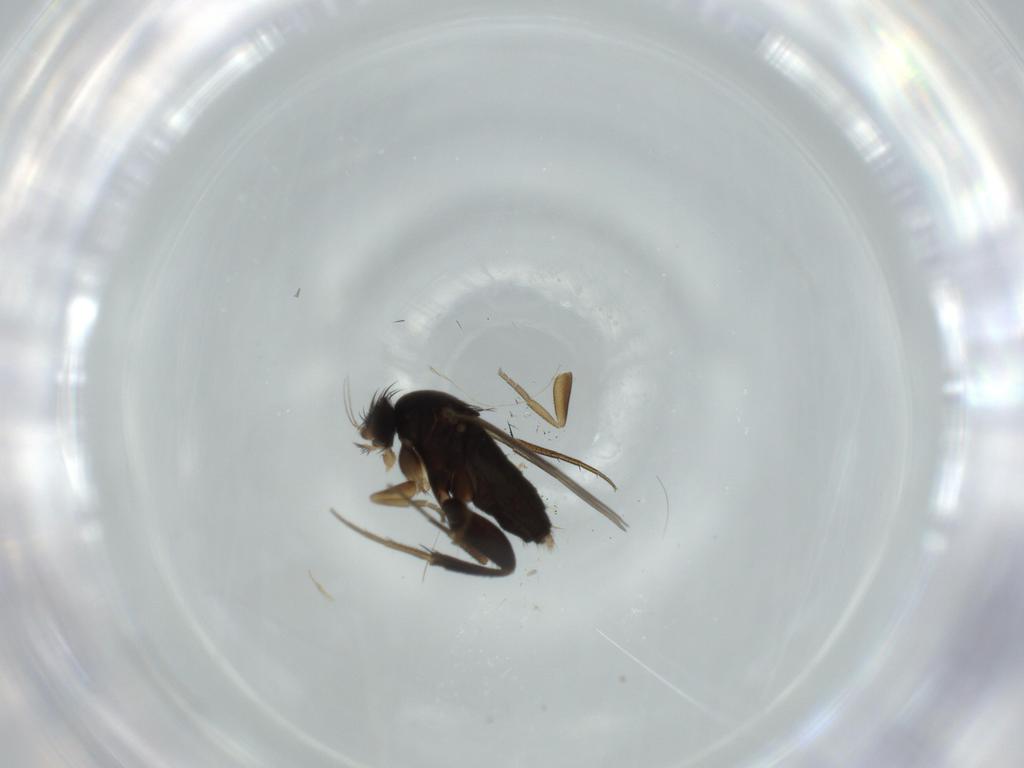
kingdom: Animalia
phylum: Arthropoda
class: Insecta
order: Diptera
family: Phoridae
